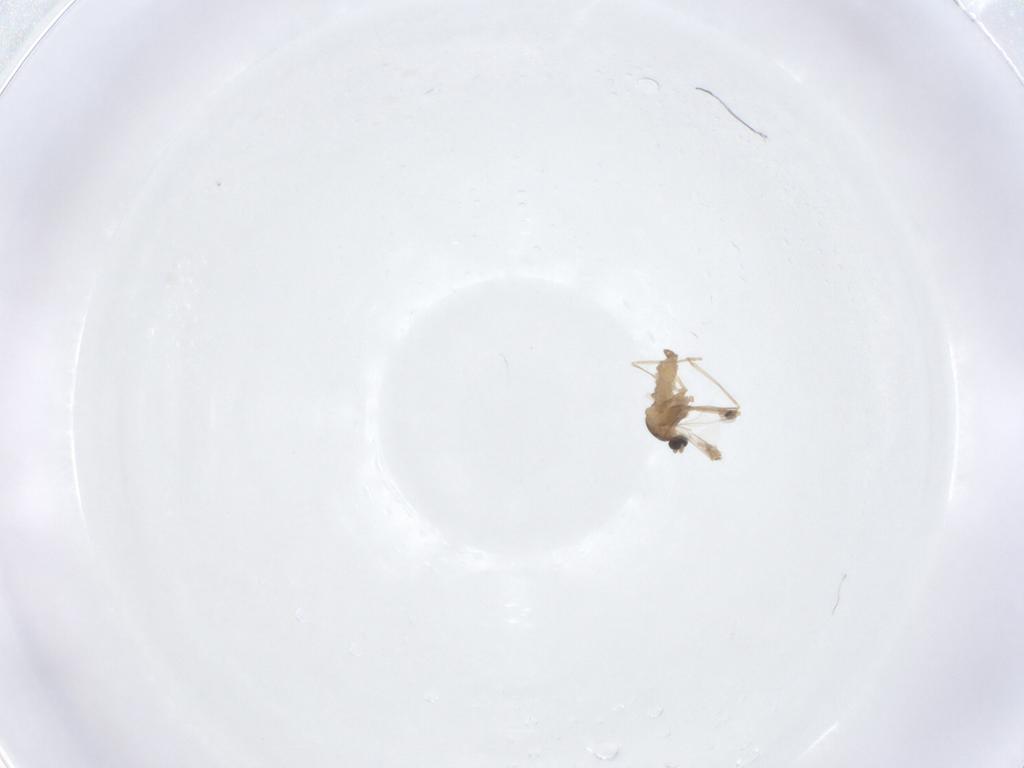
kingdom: Animalia
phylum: Arthropoda
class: Insecta
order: Diptera
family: Cecidomyiidae
